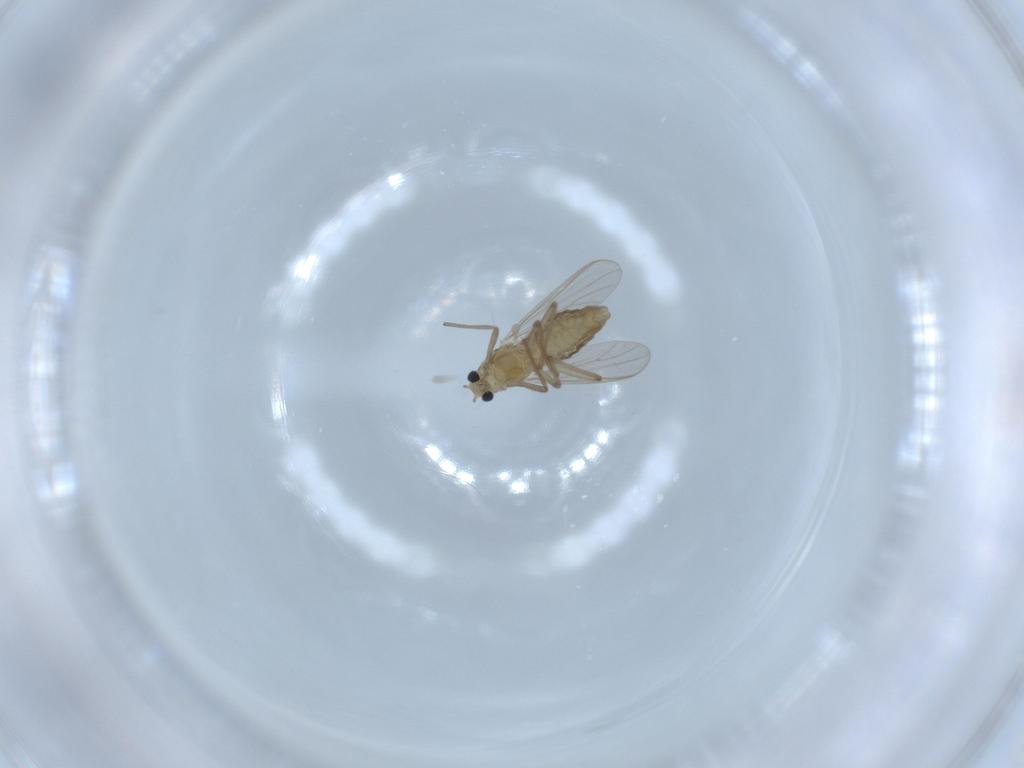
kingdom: Animalia
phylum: Arthropoda
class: Insecta
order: Diptera
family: Chironomidae
